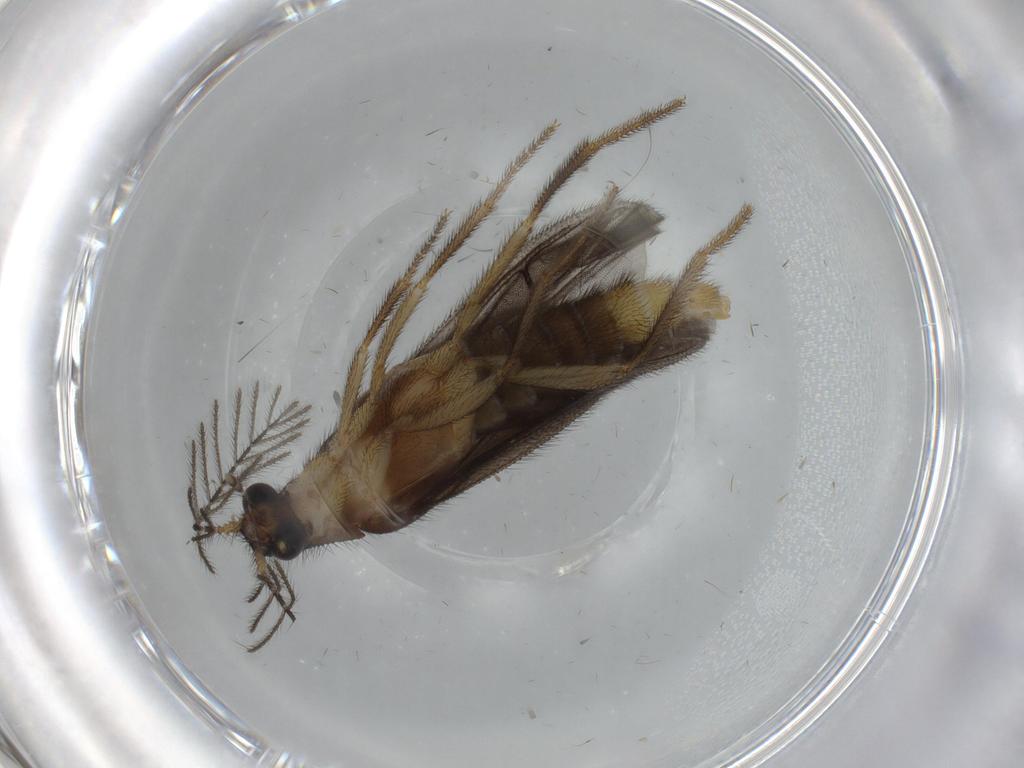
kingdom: Animalia
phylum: Arthropoda
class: Insecta
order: Coleoptera
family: Phengodidae
